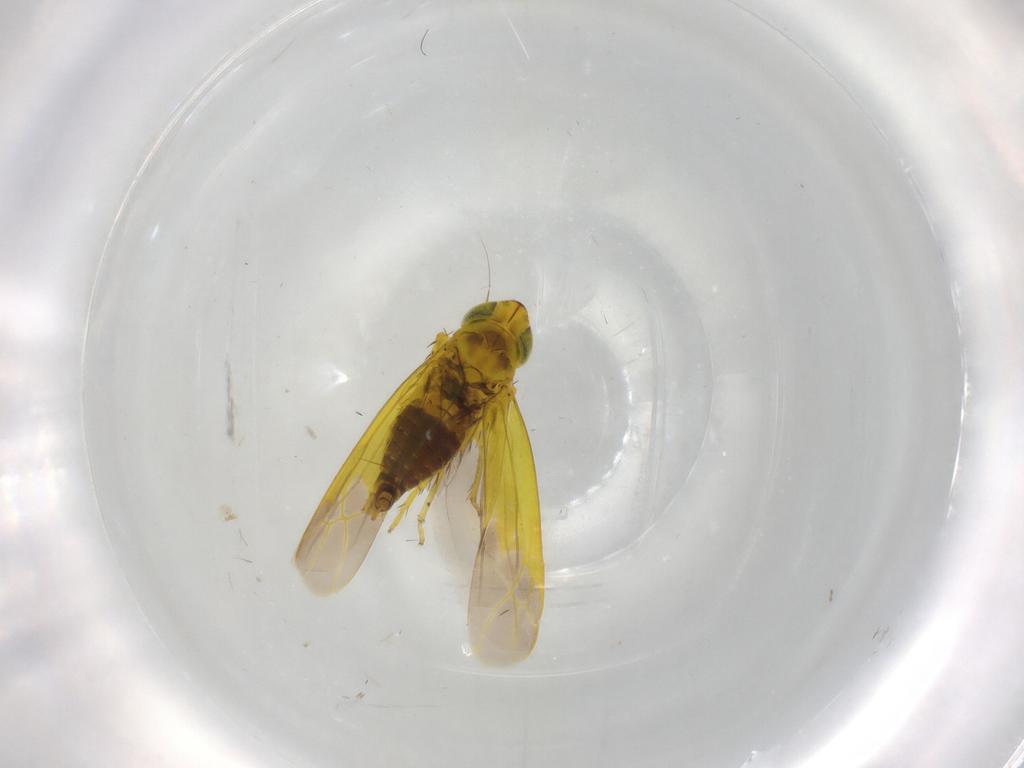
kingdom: Animalia
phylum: Arthropoda
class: Insecta
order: Hemiptera
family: Cicadellidae
